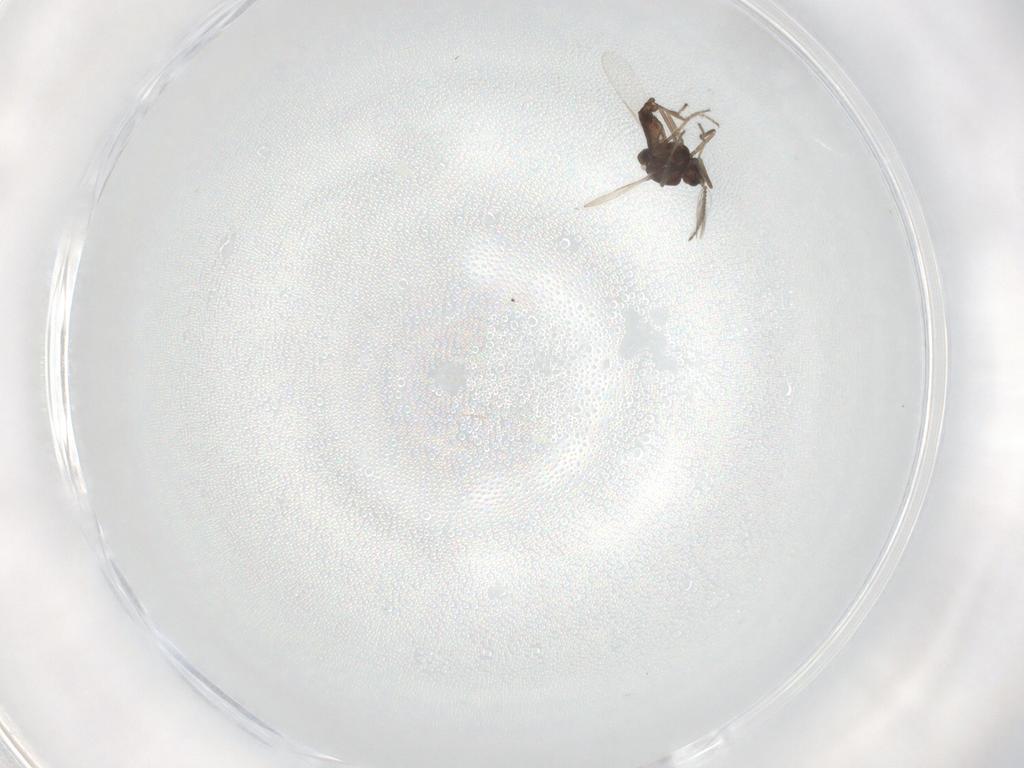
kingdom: Animalia
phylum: Arthropoda
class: Insecta
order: Diptera
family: Ceratopogonidae
